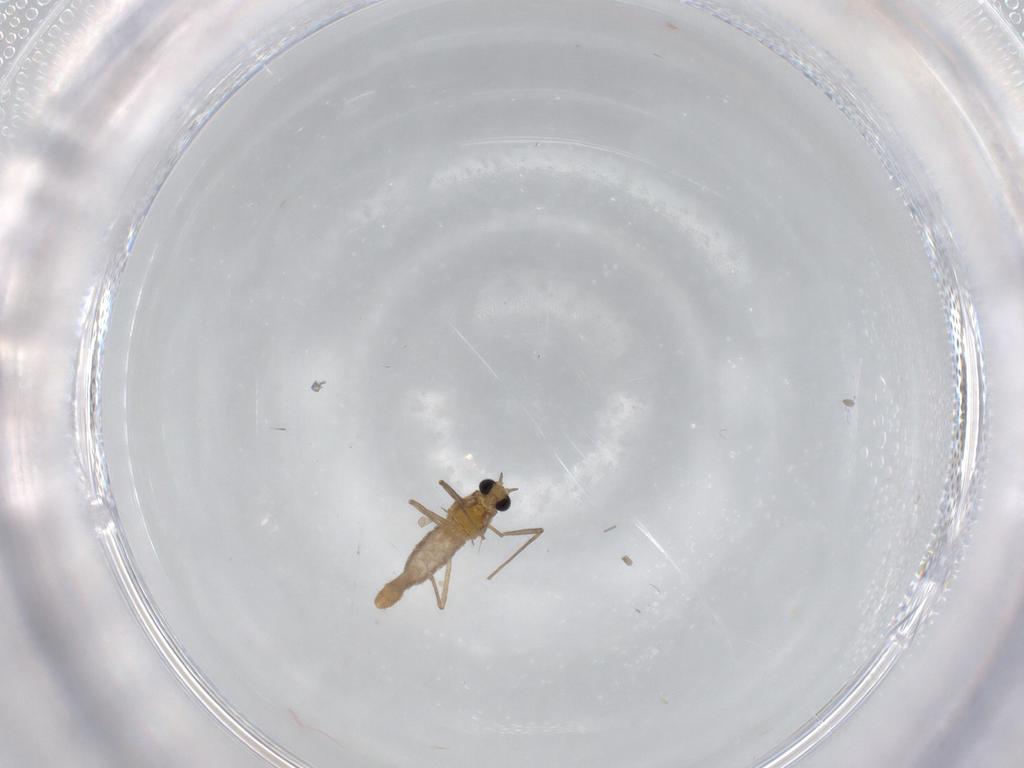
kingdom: Animalia
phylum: Arthropoda
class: Insecta
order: Diptera
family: Chironomidae
